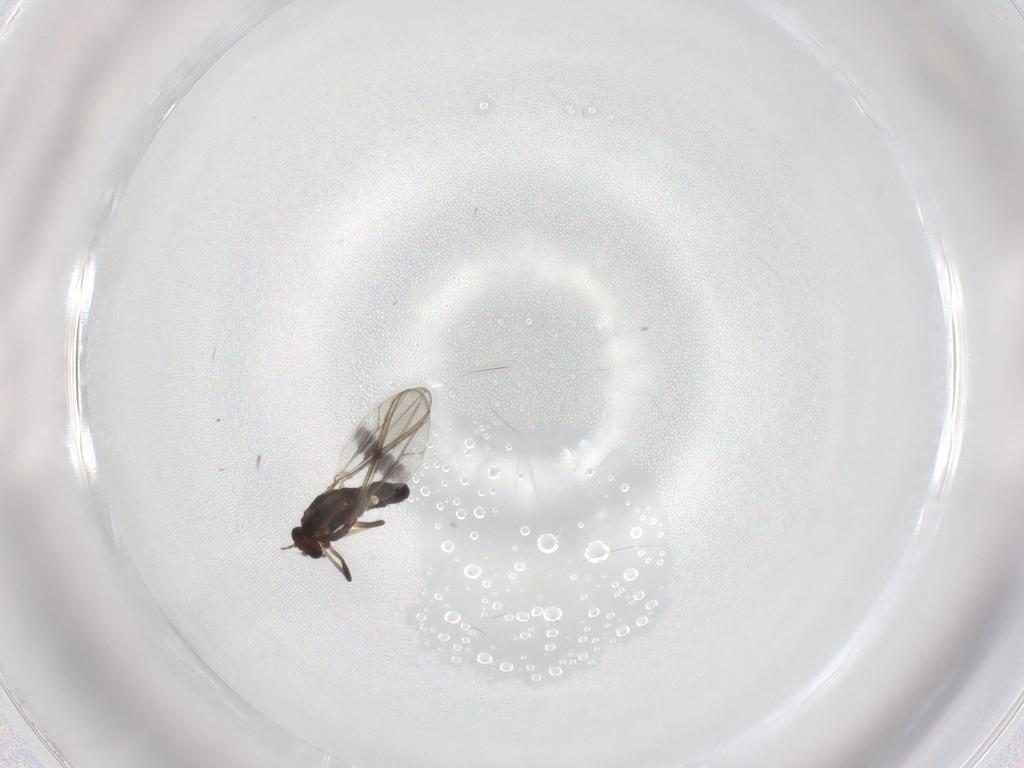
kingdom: Animalia
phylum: Arthropoda
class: Insecta
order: Diptera
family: Chironomidae
